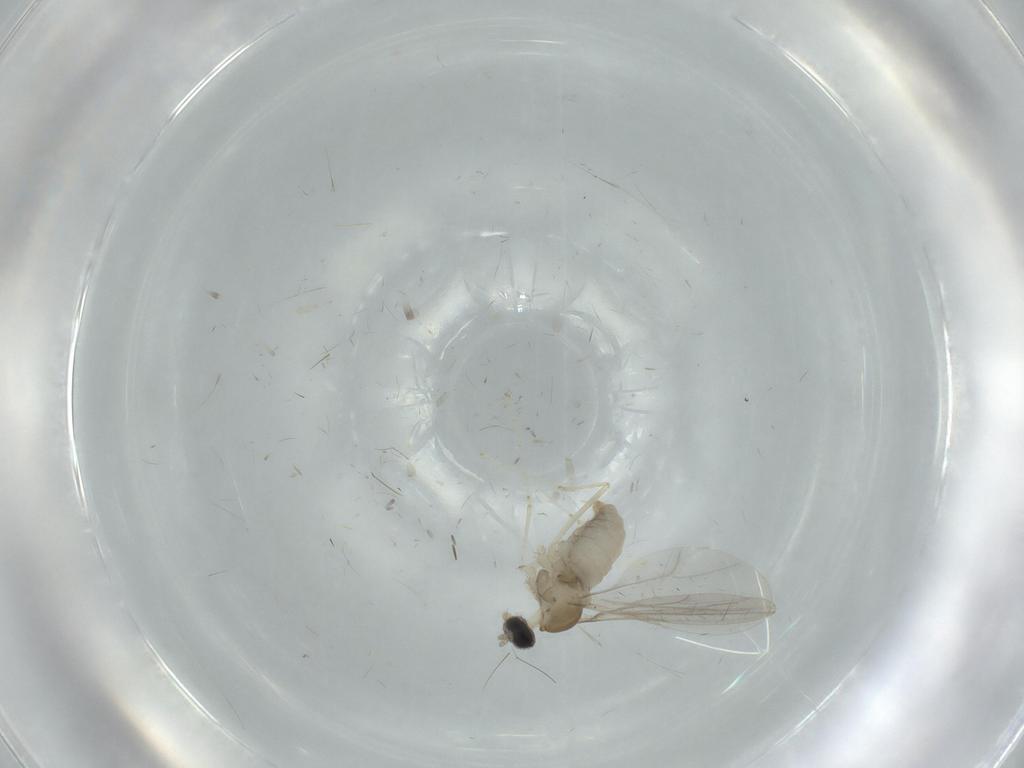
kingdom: Animalia
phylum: Arthropoda
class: Insecta
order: Diptera
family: Cecidomyiidae
